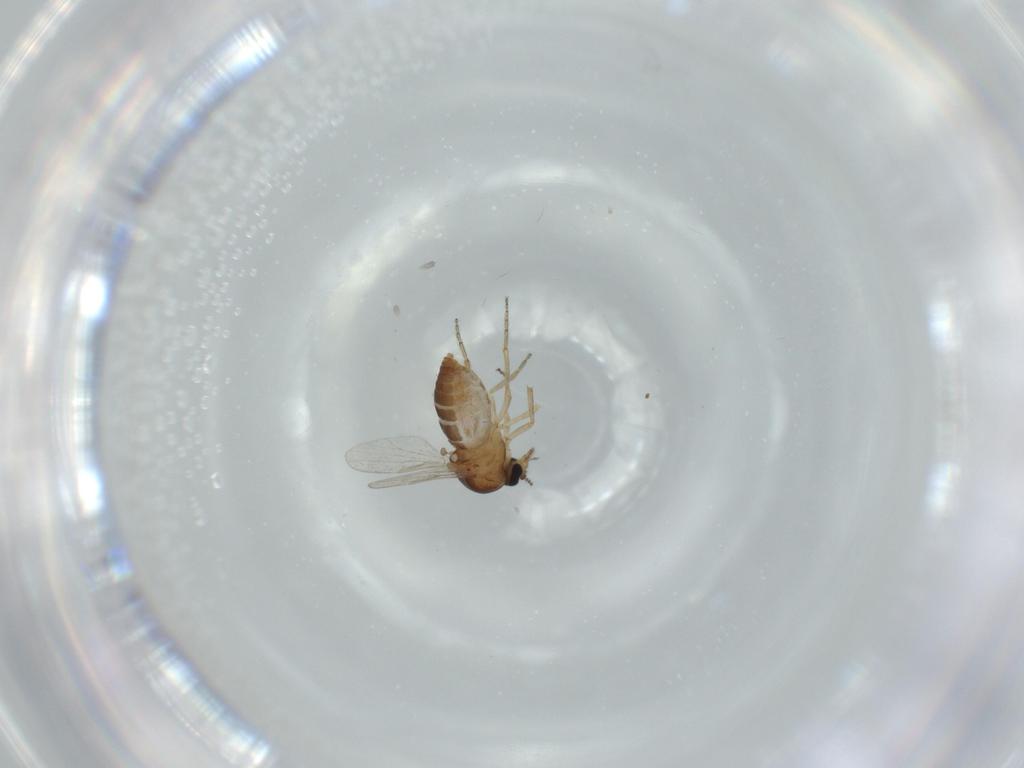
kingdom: Animalia
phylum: Arthropoda
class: Insecta
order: Diptera
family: Ceratopogonidae
